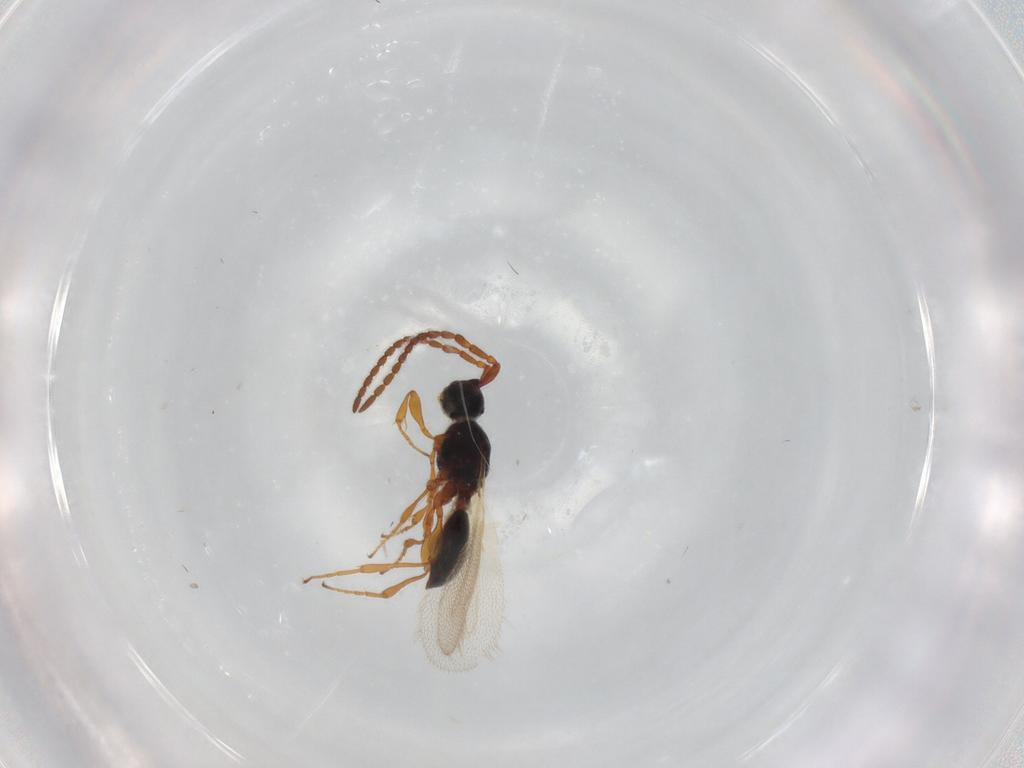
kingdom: Animalia
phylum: Arthropoda
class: Insecta
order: Hymenoptera
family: Diapriidae
